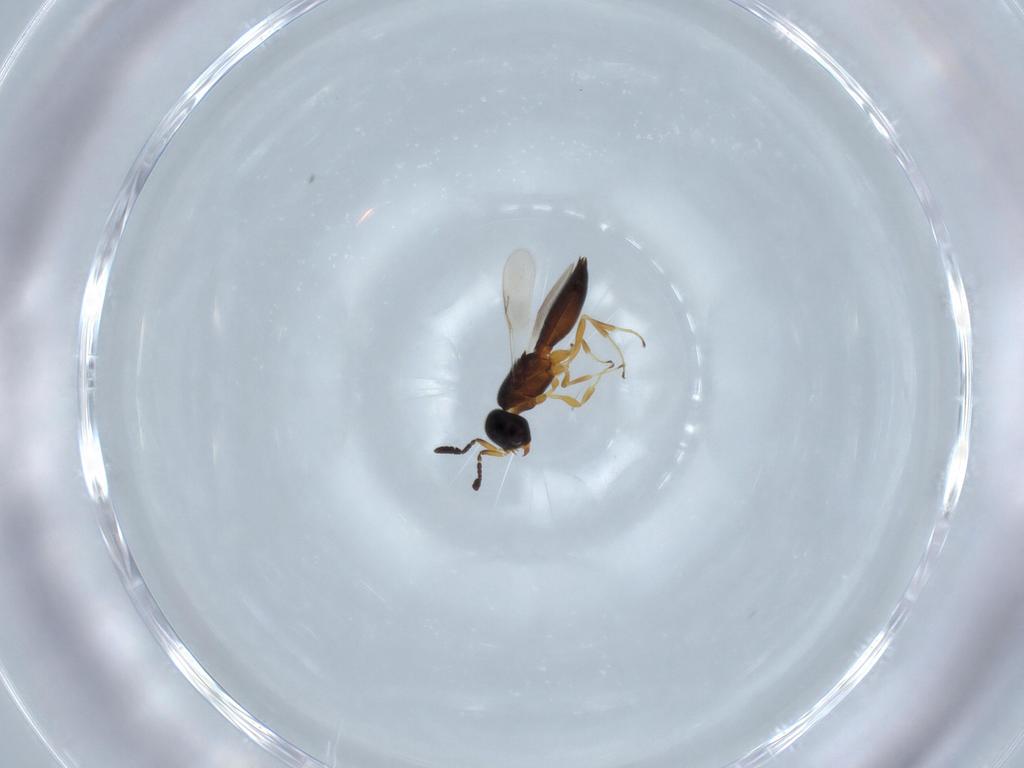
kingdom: Animalia
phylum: Arthropoda
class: Insecta
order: Hymenoptera
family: Scelionidae
